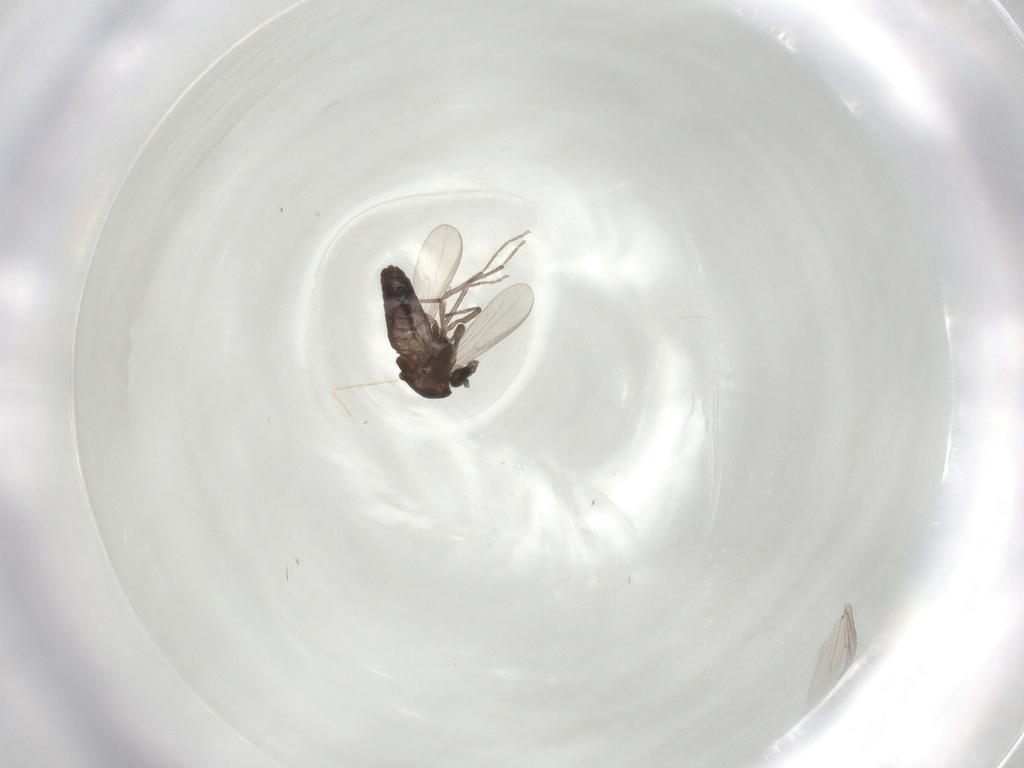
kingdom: Animalia
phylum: Arthropoda
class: Insecta
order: Diptera
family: Chironomidae
